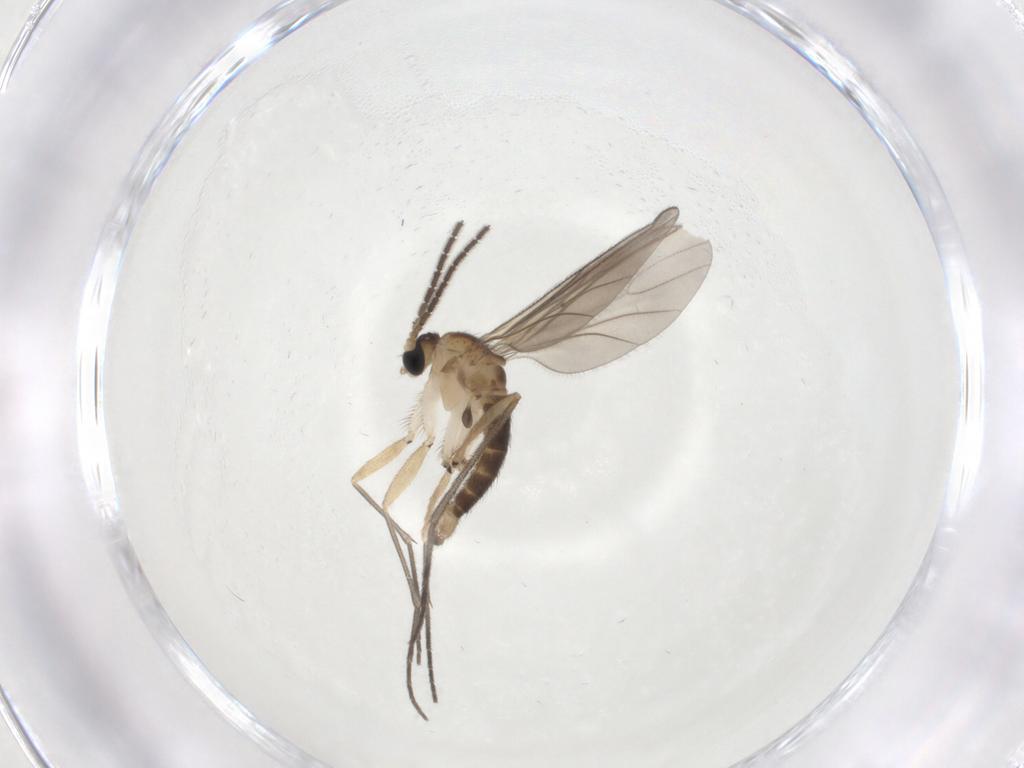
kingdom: Animalia
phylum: Arthropoda
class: Insecta
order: Diptera
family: Sciaridae
